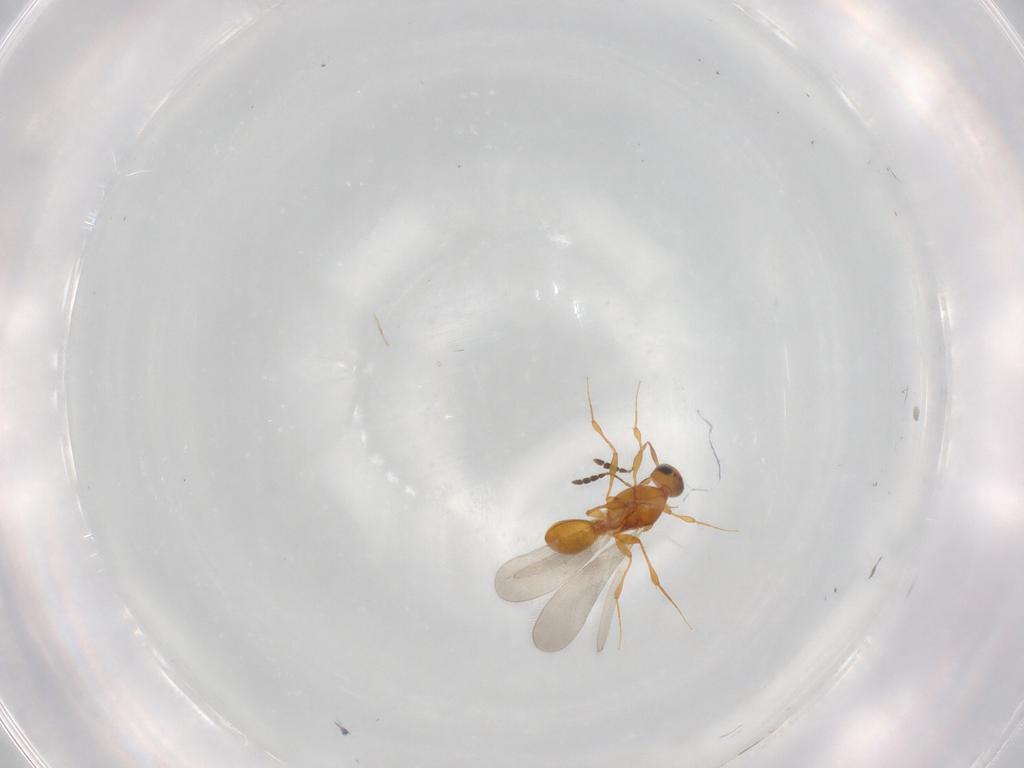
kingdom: Animalia
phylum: Arthropoda
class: Insecta
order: Hymenoptera
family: Platygastridae
